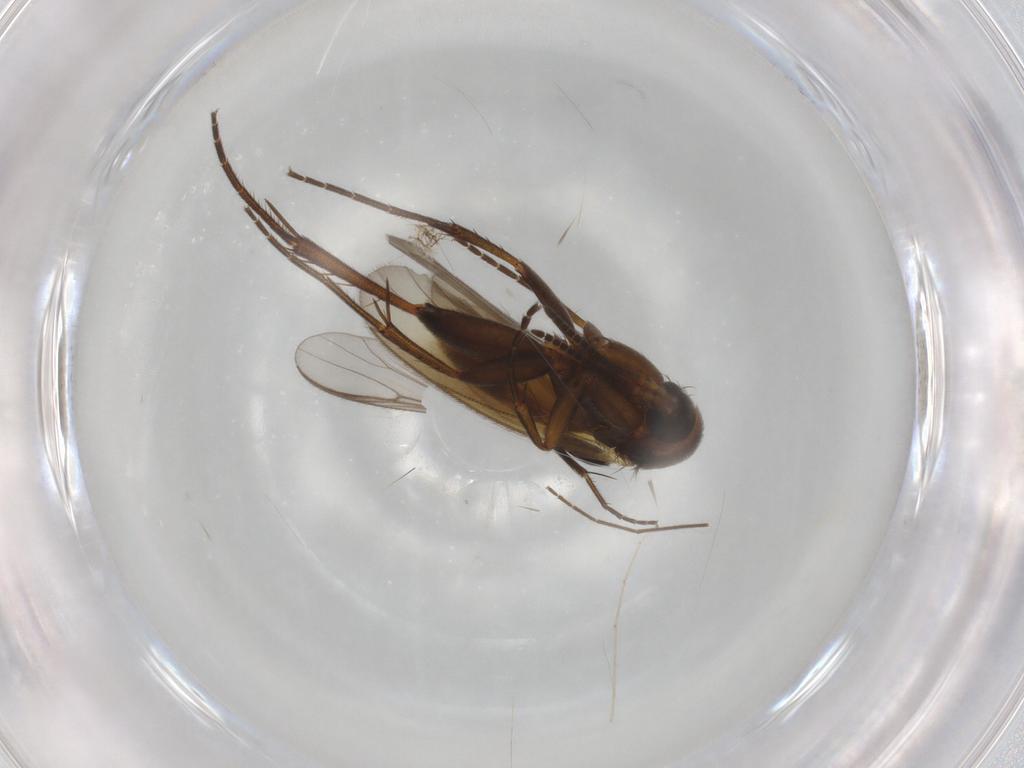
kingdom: Animalia
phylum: Arthropoda
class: Insecta
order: Diptera
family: Phoridae
